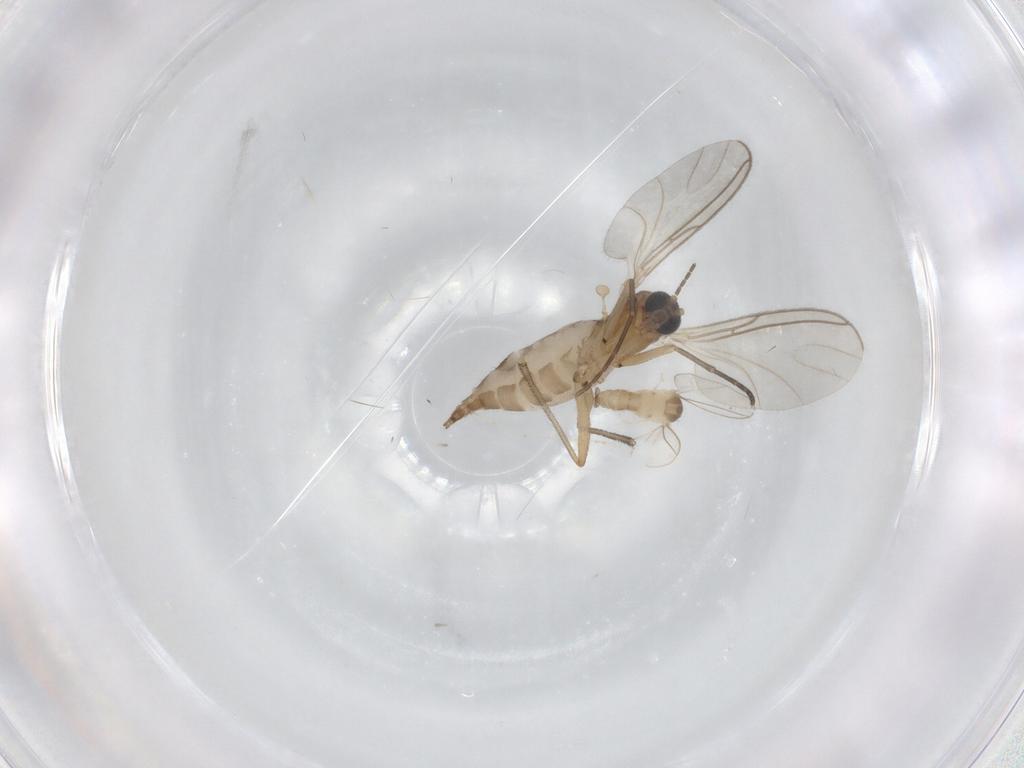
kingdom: Animalia
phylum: Arthropoda
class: Insecta
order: Diptera
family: Sciaridae
